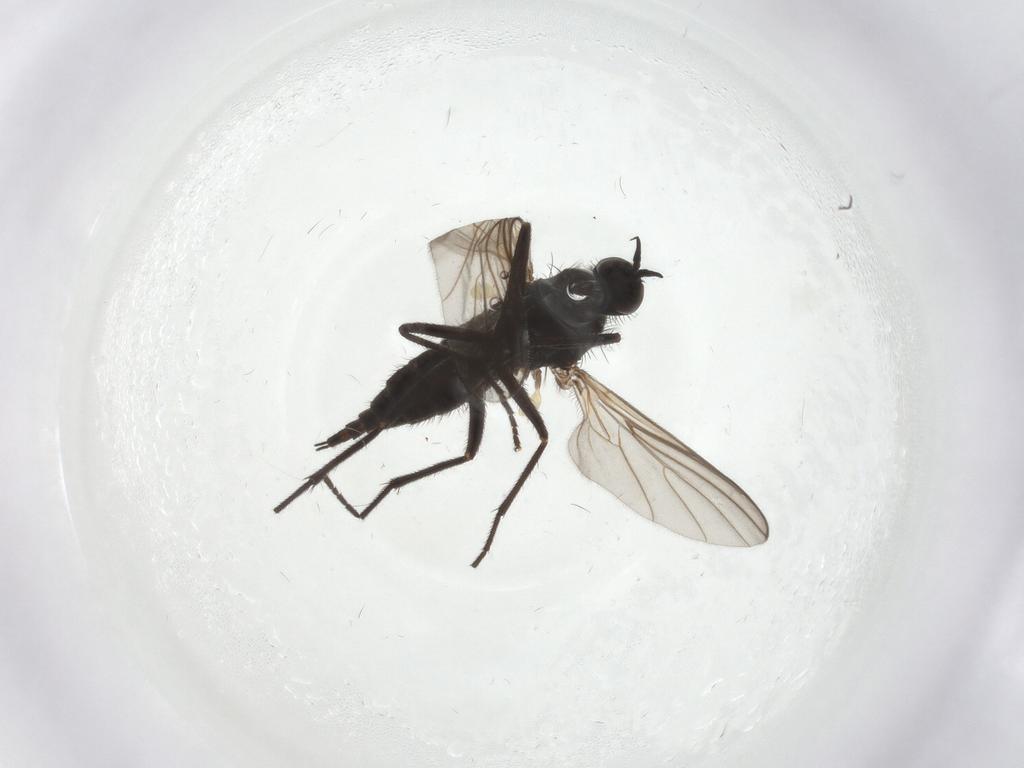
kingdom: Animalia
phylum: Arthropoda
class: Insecta
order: Diptera
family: Empididae
